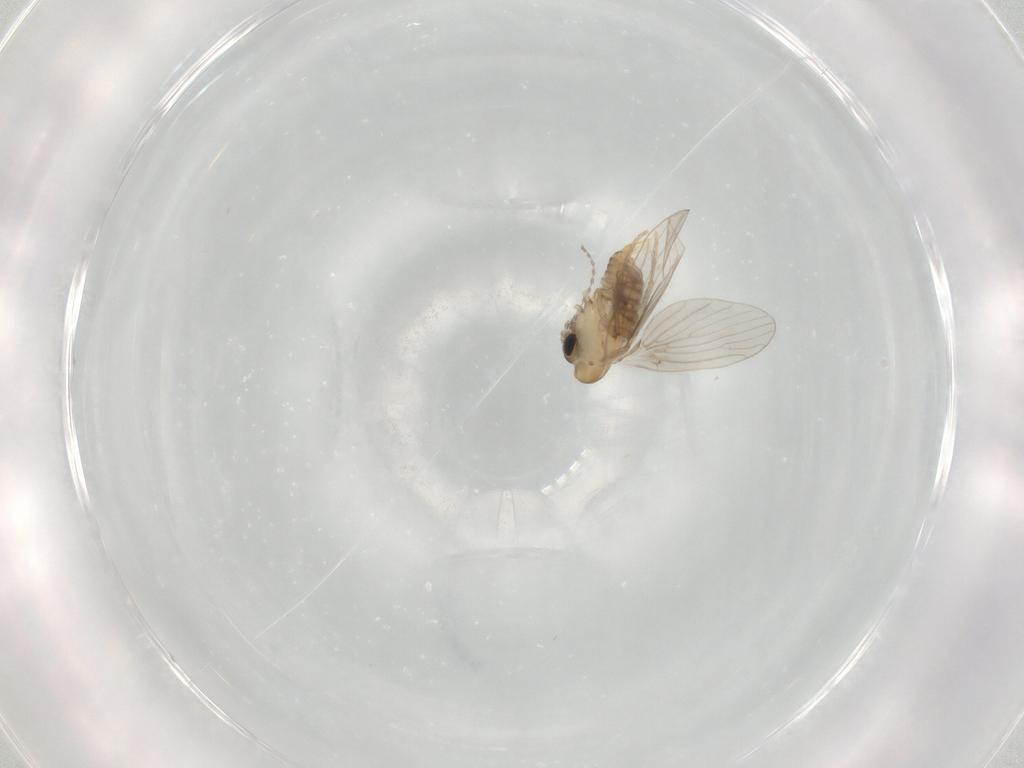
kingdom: Animalia
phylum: Arthropoda
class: Insecta
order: Diptera
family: Psychodidae
